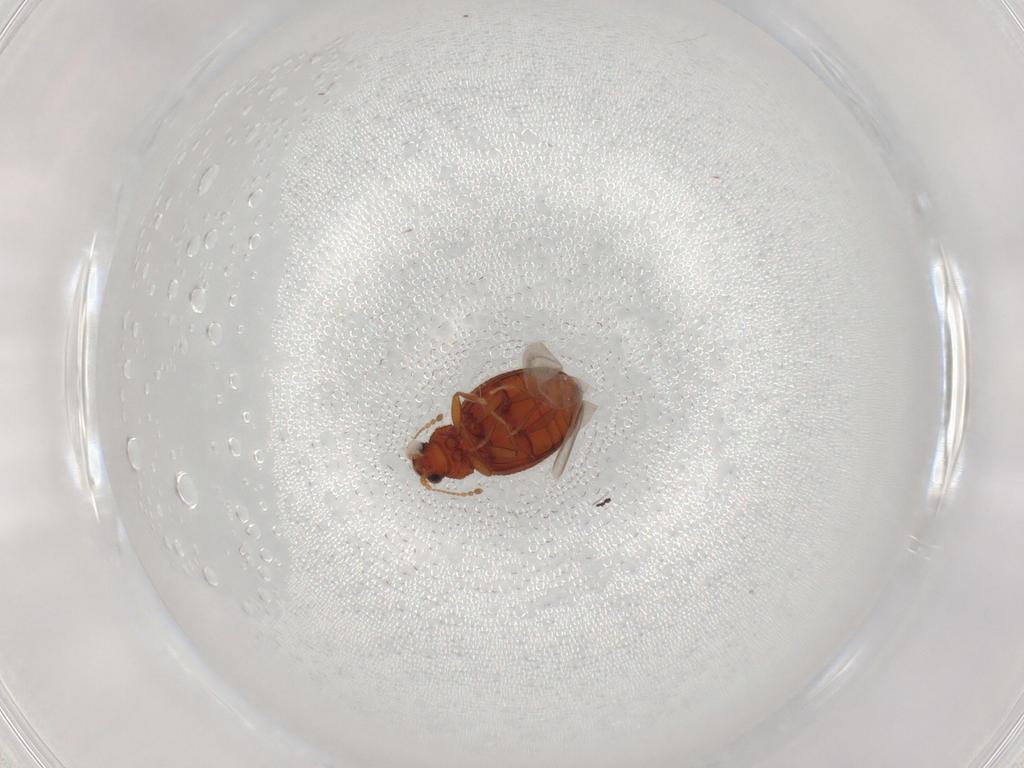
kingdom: Animalia
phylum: Arthropoda
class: Insecta
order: Coleoptera
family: Latridiidae
